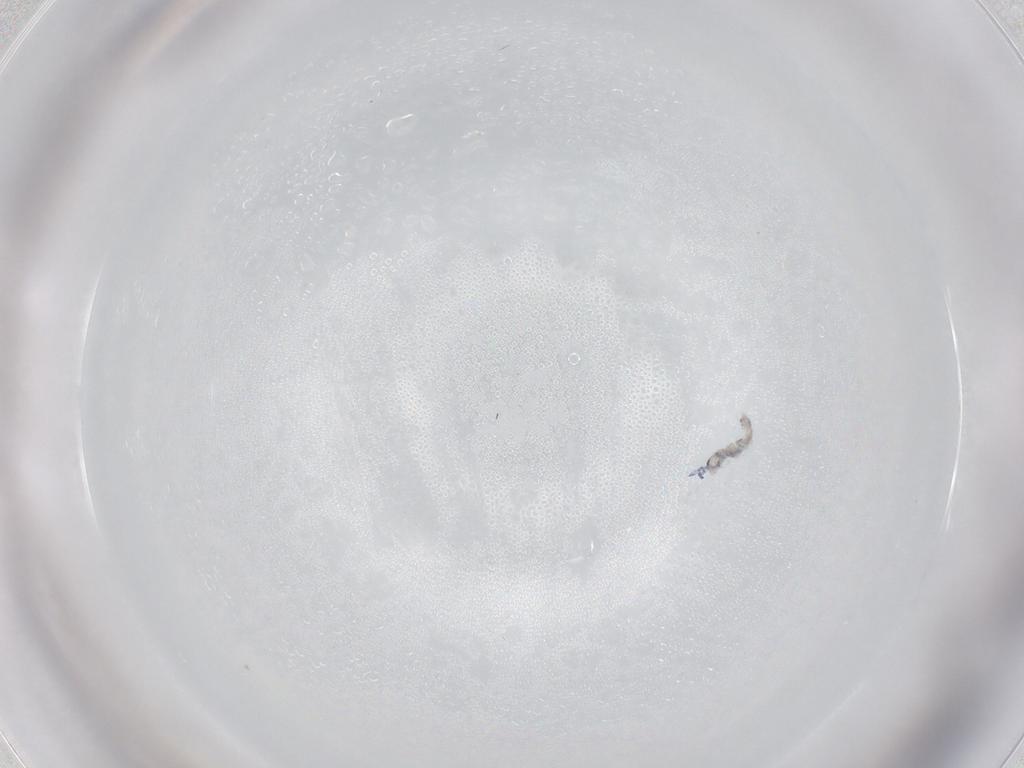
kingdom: Animalia
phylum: Arthropoda
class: Collembola
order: Entomobryomorpha
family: Entomobryidae
